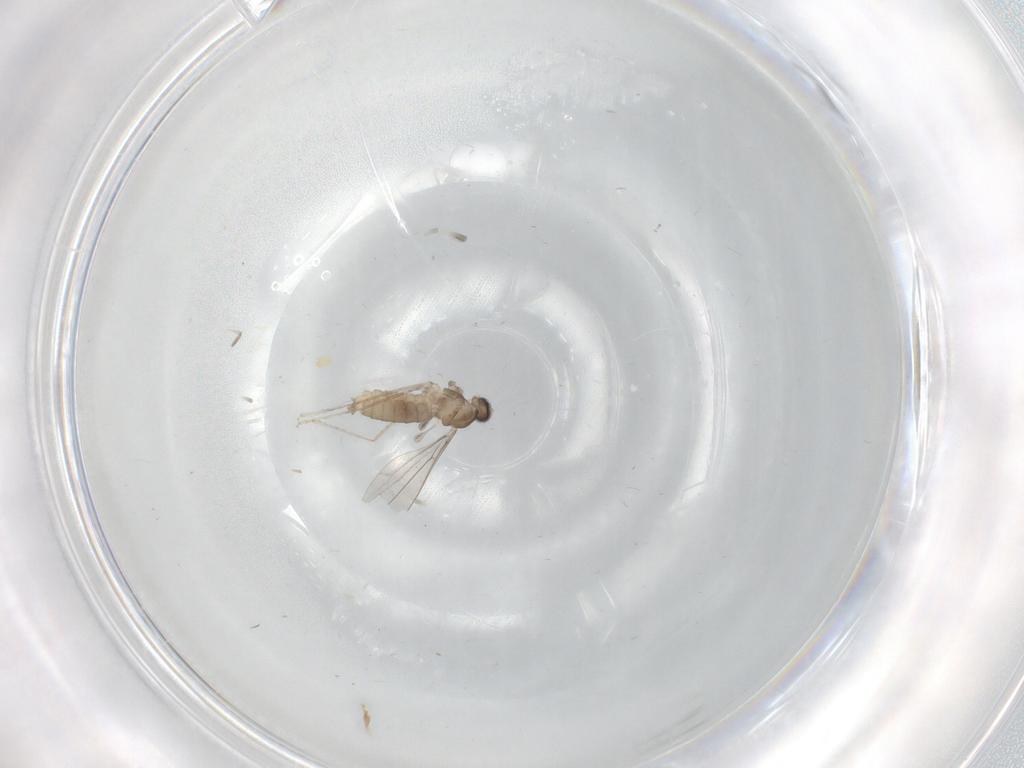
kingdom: Animalia
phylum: Arthropoda
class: Insecta
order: Diptera
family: Cecidomyiidae
